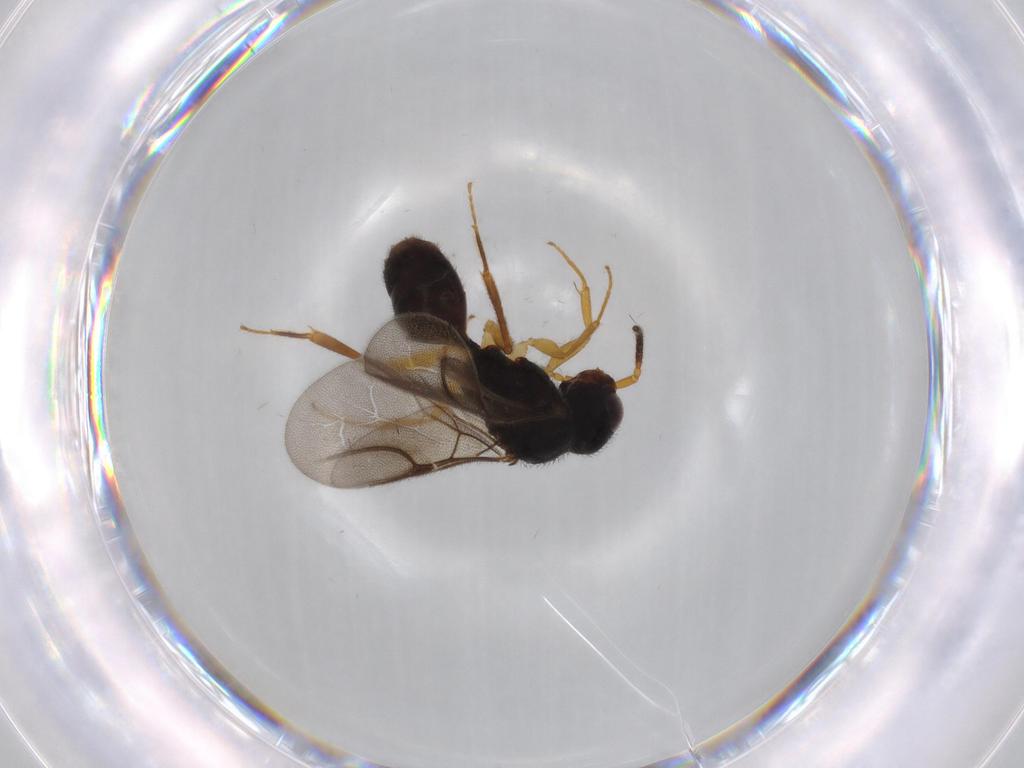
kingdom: Animalia
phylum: Arthropoda
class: Insecta
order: Hymenoptera
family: Bethylidae
